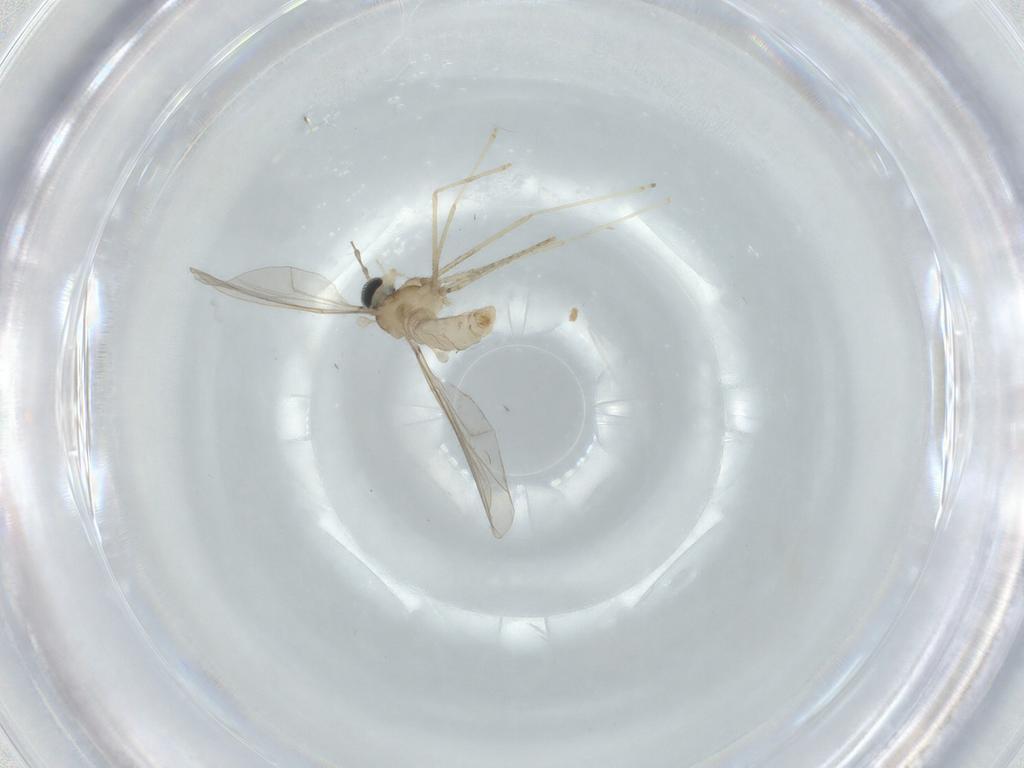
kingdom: Animalia
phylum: Arthropoda
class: Insecta
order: Diptera
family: Cecidomyiidae
